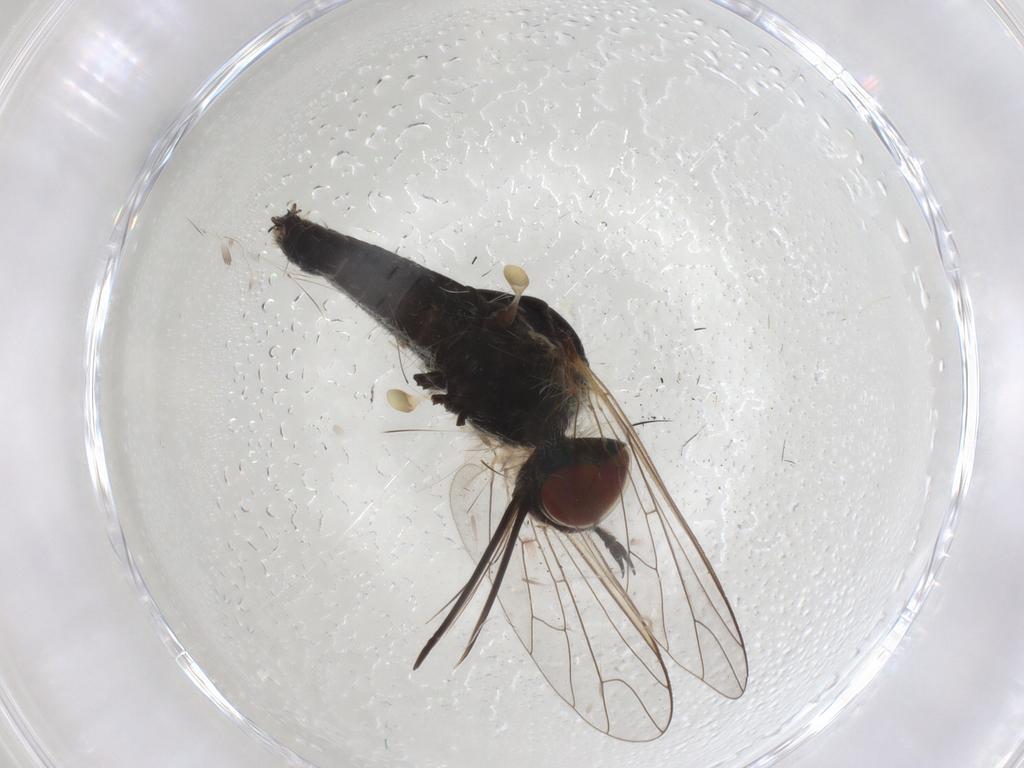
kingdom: Animalia
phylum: Arthropoda
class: Insecta
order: Diptera
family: Bombyliidae
